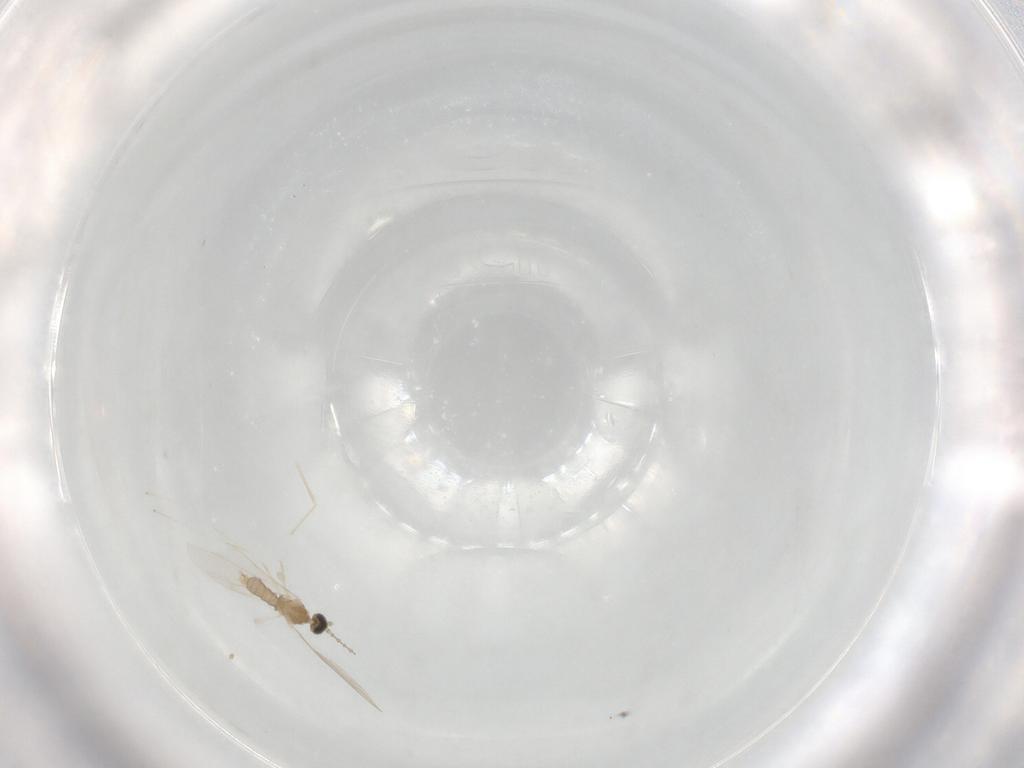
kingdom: Animalia
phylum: Arthropoda
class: Insecta
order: Diptera
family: Cecidomyiidae
